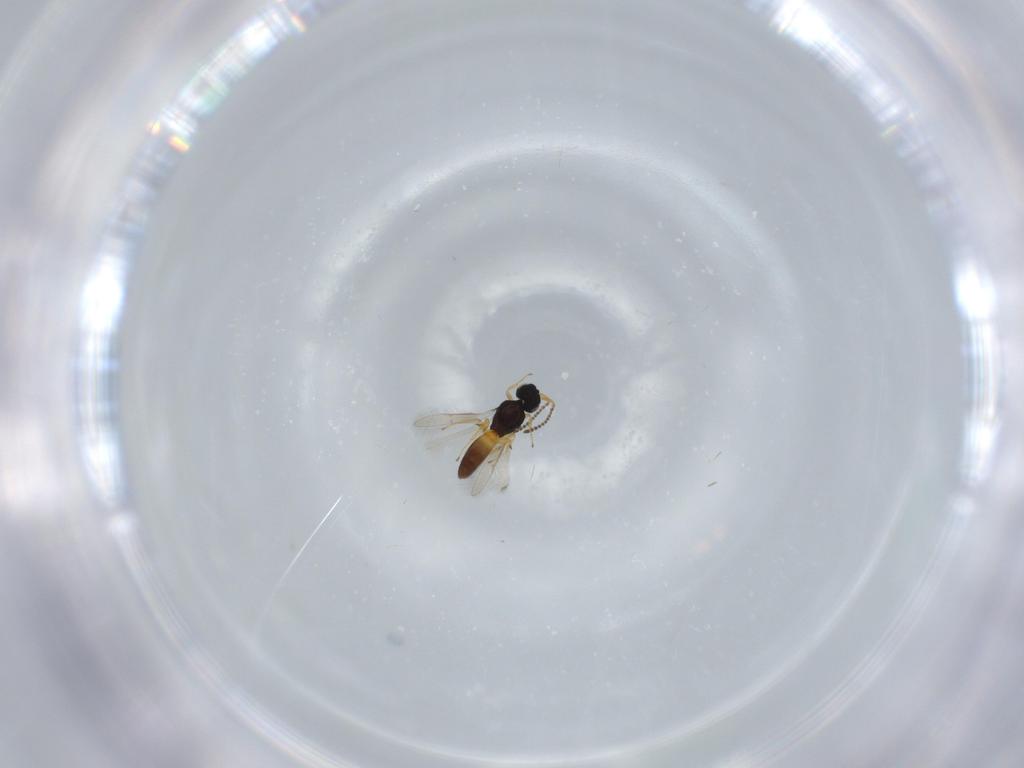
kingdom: Animalia
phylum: Arthropoda
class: Insecta
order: Hymenoptera
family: Scelionidae
